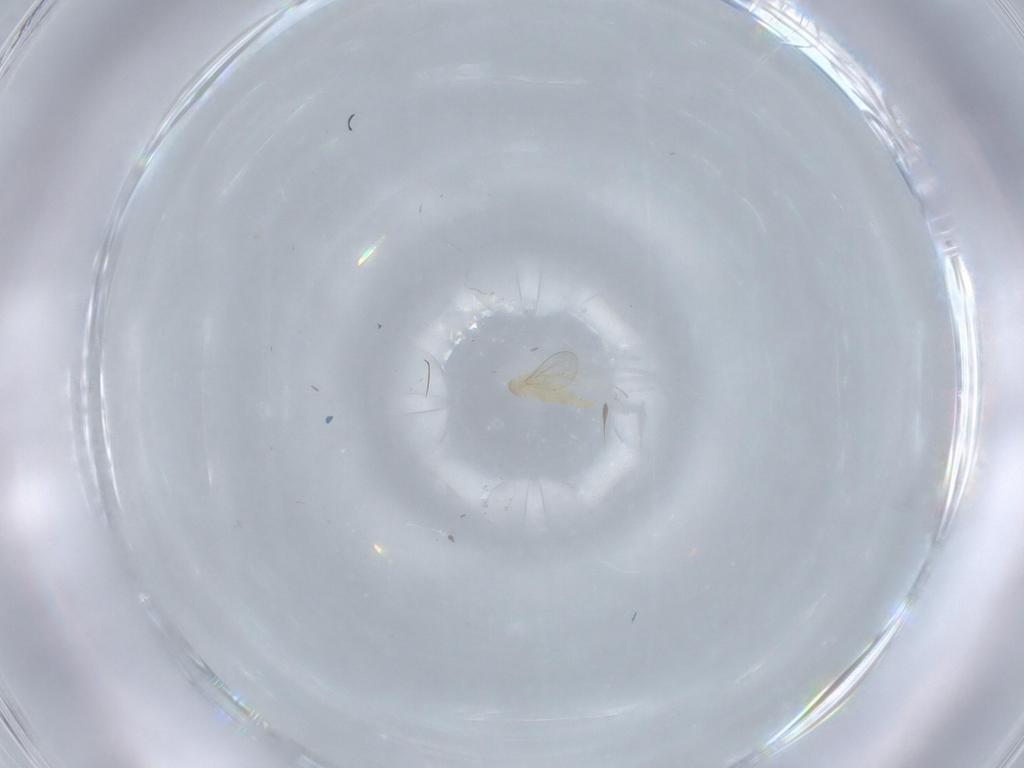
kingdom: Animalia
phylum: Arthropoda
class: Insecta
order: Diptera
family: Cecidomyiidae
